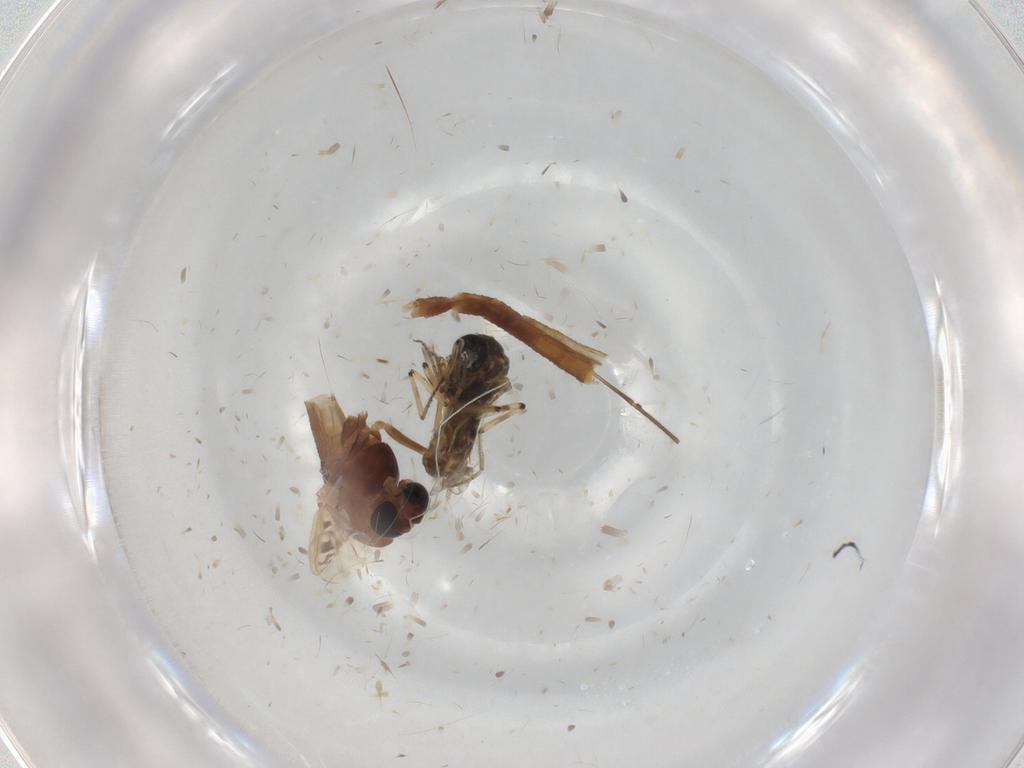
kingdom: Animalia
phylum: Arthropoda
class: Insecta
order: Diptera
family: Ceratopogonidae
